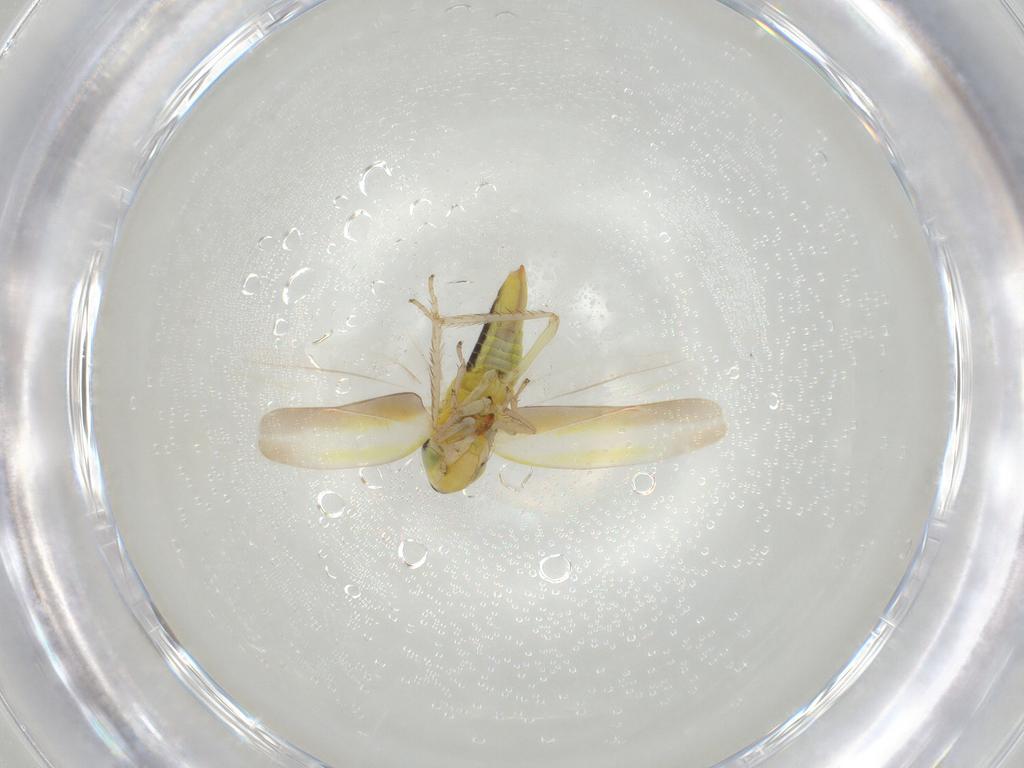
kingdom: Animalia
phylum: Arthropoda
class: Insecta
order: Hemiptera
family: Cicadellidae
